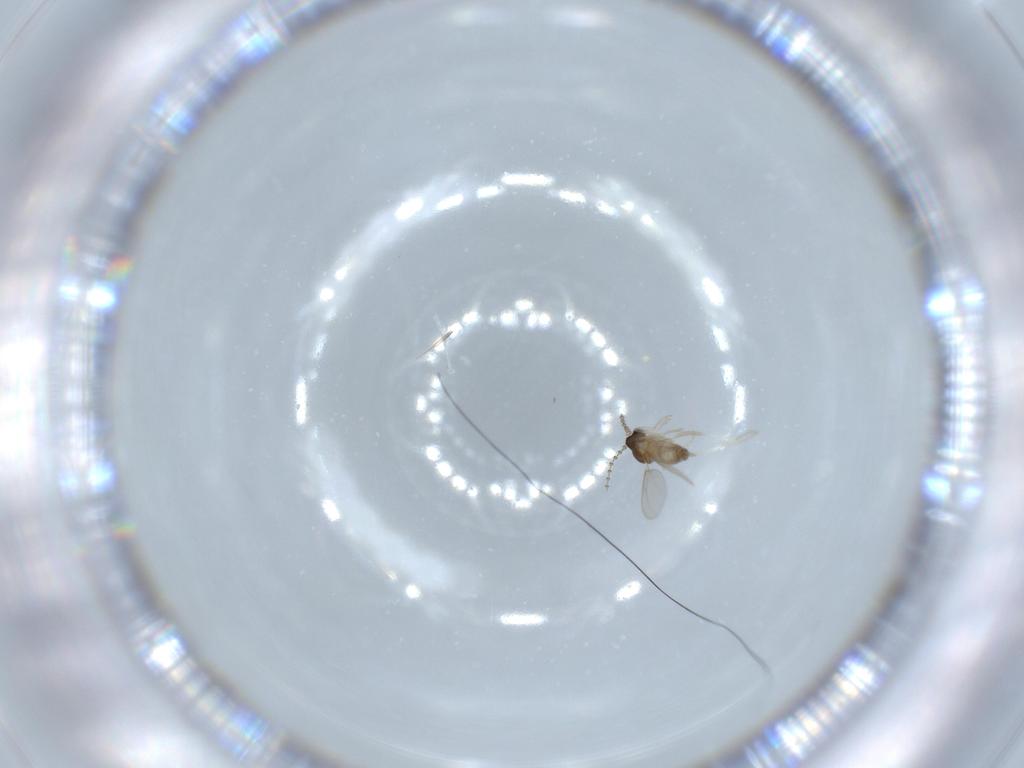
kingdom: Animalia
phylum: Arthropoda
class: Insecta
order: Diptera
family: Cecidomyiidae
